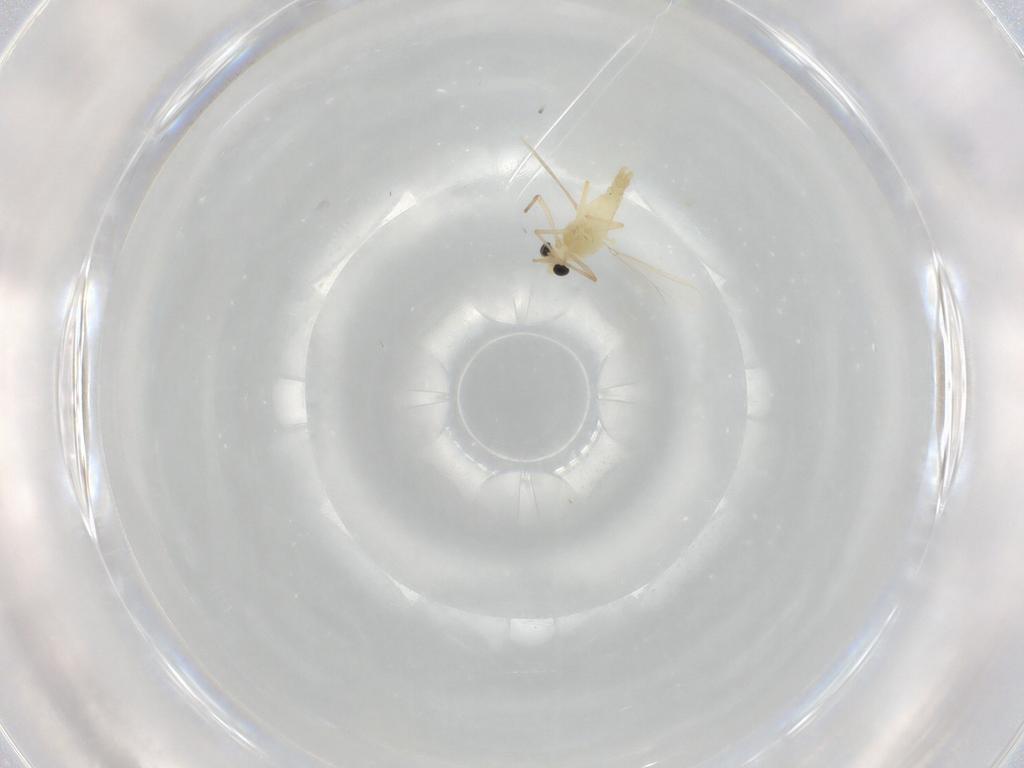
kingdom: Animalia
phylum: Arthropoda
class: Insecta
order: Diptera
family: Chironomidae
